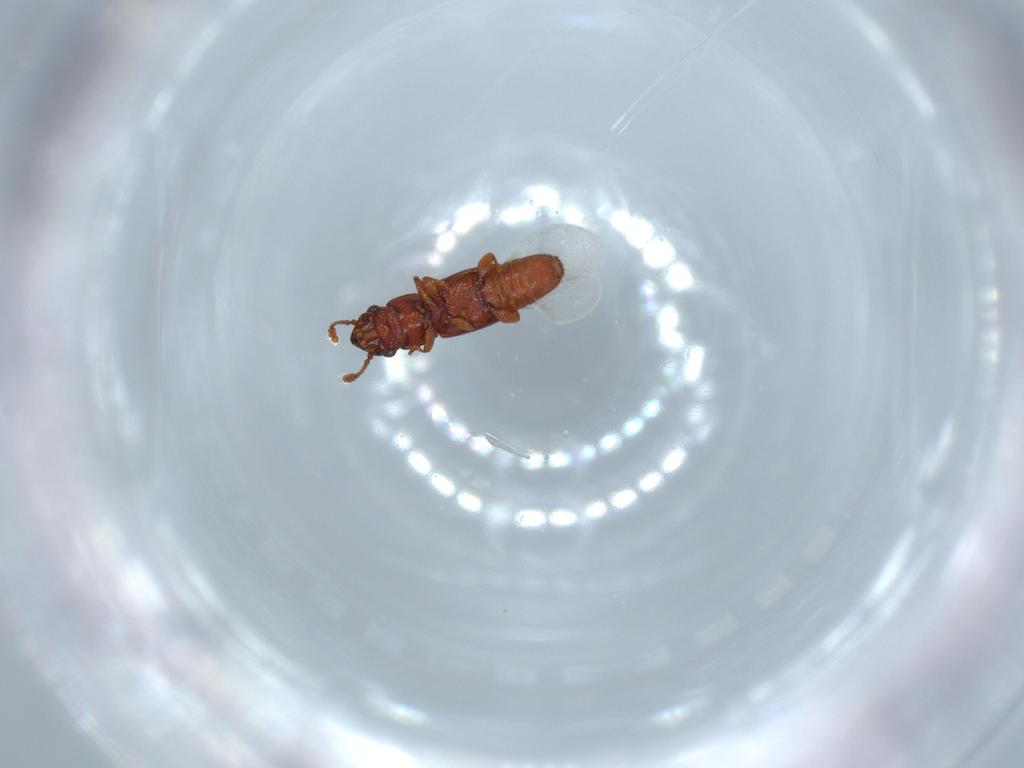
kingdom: Animalia
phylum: Arthropoda
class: Insecta
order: Coleoptera
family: Smicripidae
